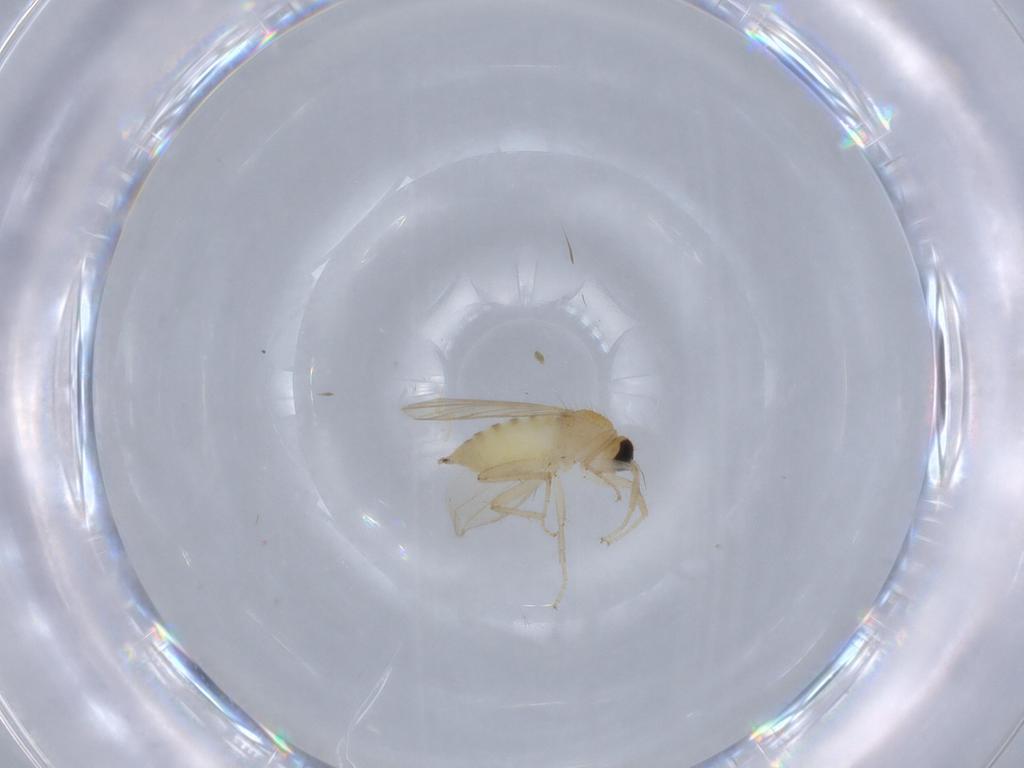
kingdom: Animalia
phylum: Arthropoda
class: Insecta
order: Diptera
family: Hybotidae
